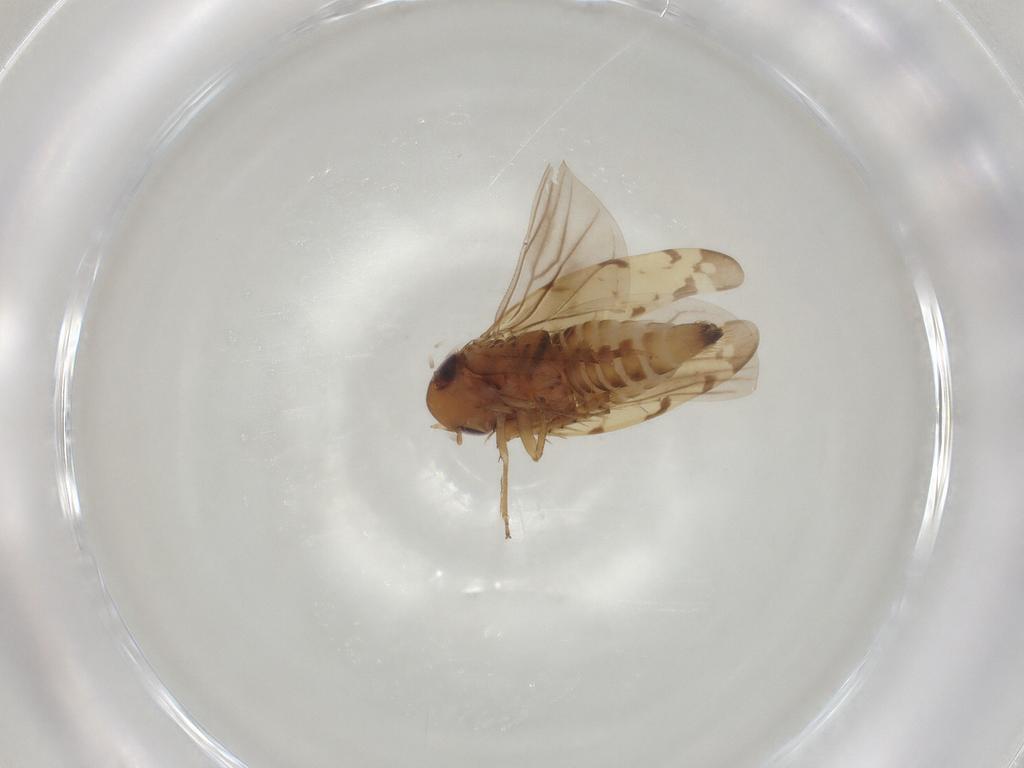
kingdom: Animalia
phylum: Arthropoda
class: Insecta
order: Hemiptera
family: Cicadellidae
